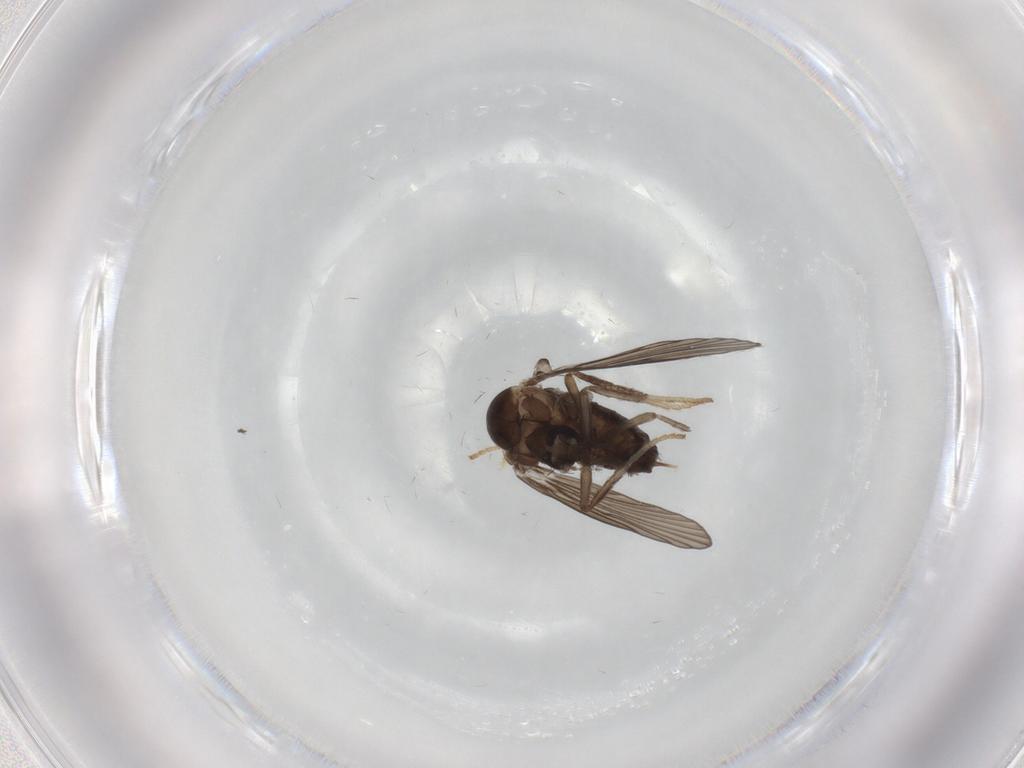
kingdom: Animalia
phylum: Arthropoda
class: Insecta
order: Diptera
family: Psychodidae
